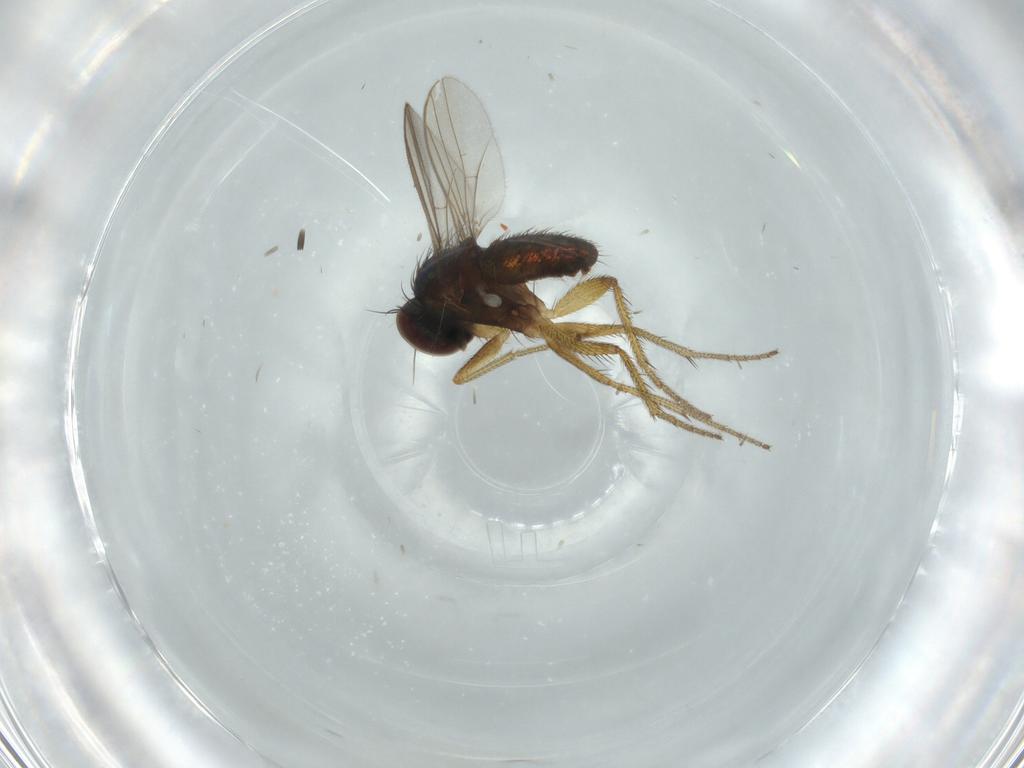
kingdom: Animalia
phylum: Arthropoda
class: Insecta
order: Diptera
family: Dolichopodidae
